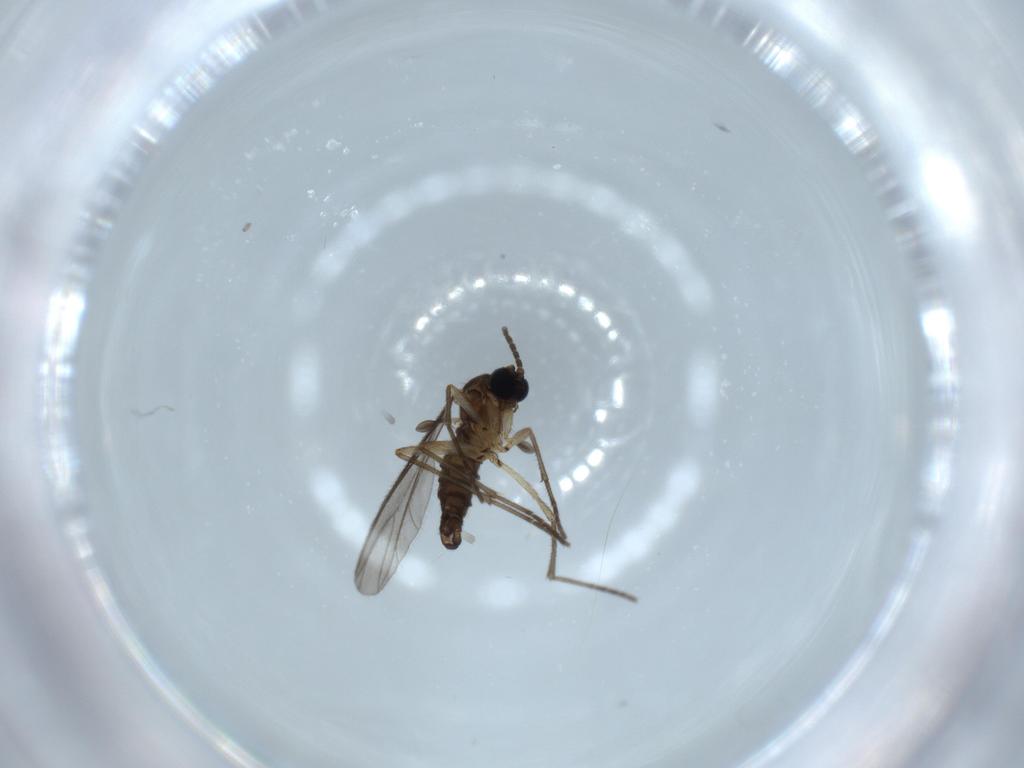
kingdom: Animalia
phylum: Arthropoda
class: Insecta
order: Diptera
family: Sciaridae
